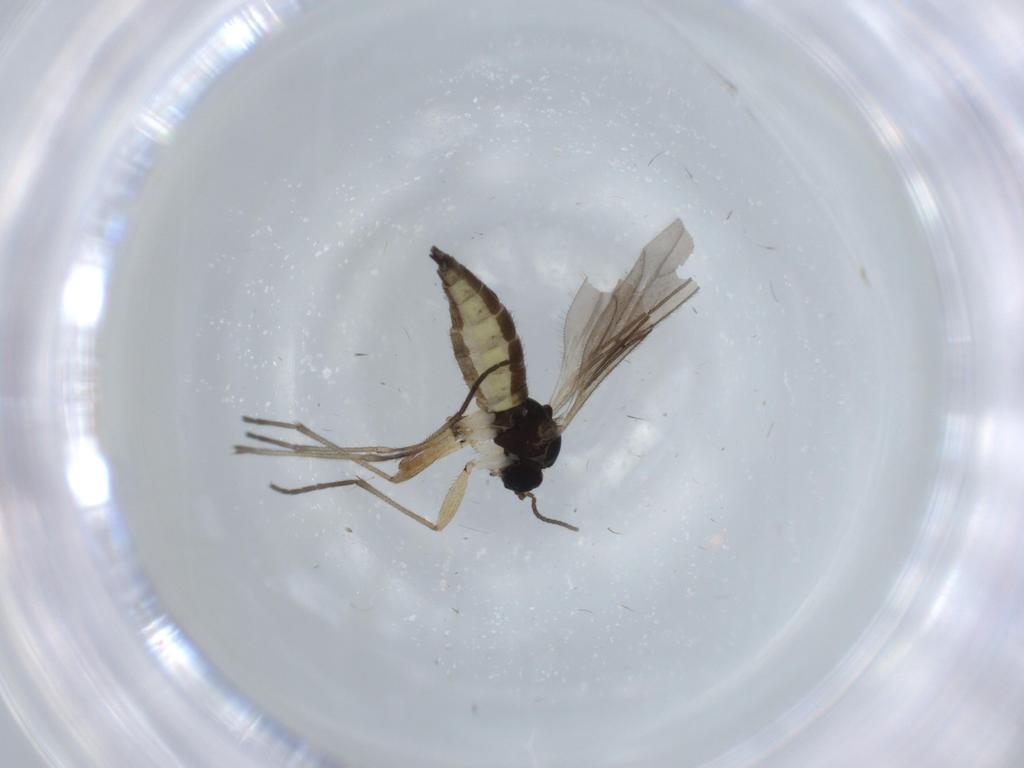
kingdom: Animalia
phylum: Arthropoda
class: Insecta
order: Diptera
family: Sciaridae
